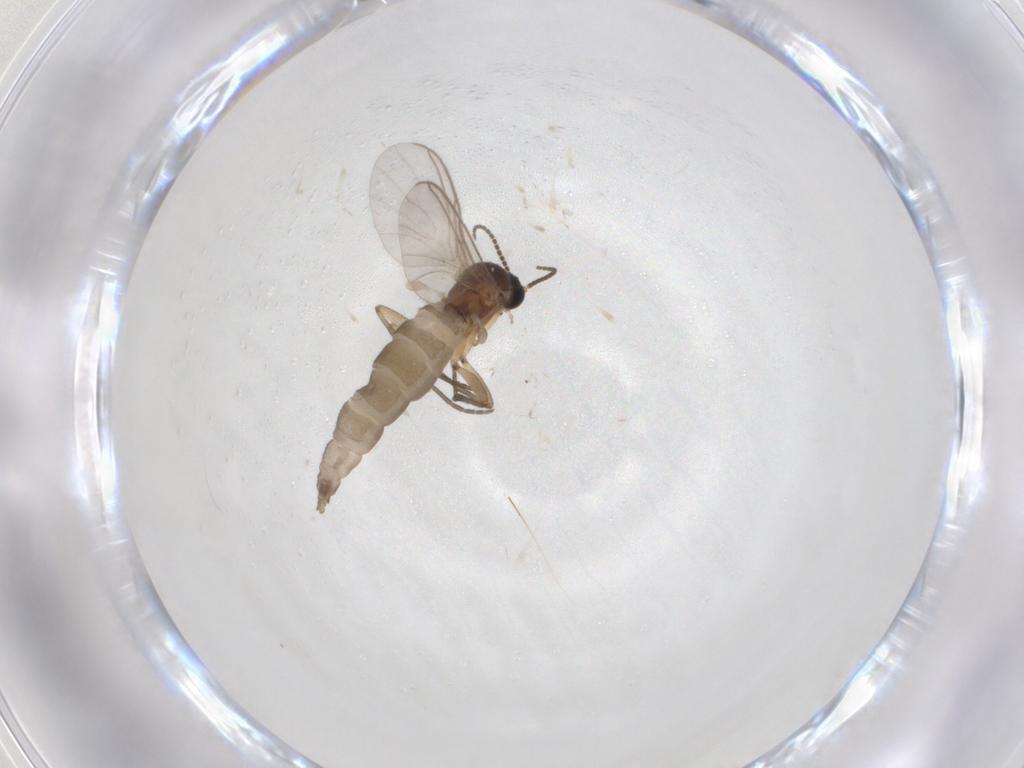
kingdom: Animalia
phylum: Arthropoda
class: Insecta
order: Diptera
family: Sciaridae
